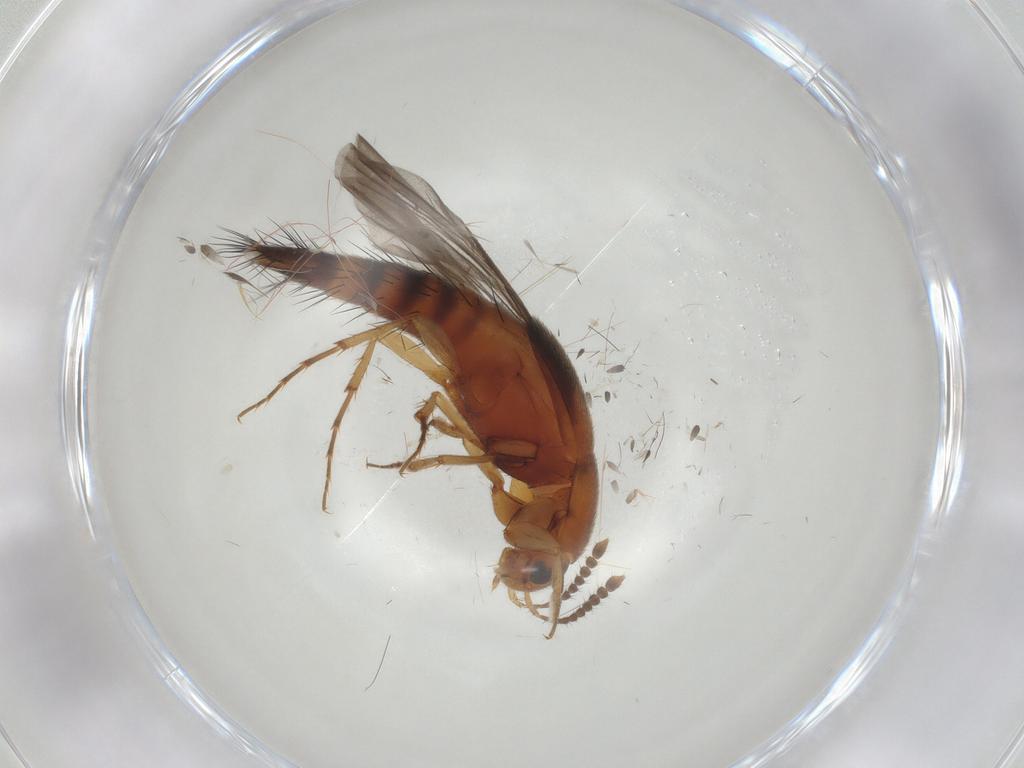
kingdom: Animalia
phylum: Arthropoda
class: Insecta
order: Coleoptera
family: Staphylinidae
